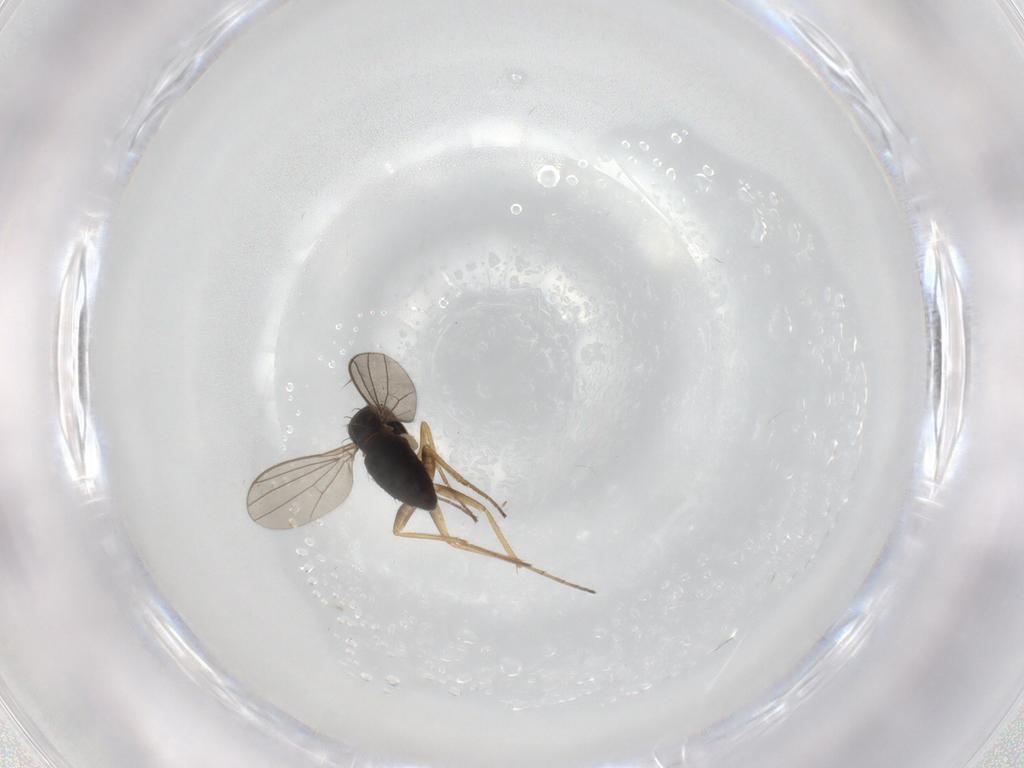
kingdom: Animalia
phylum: Arthropoda
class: Insecta
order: Diptera
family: Dolichopodidae
